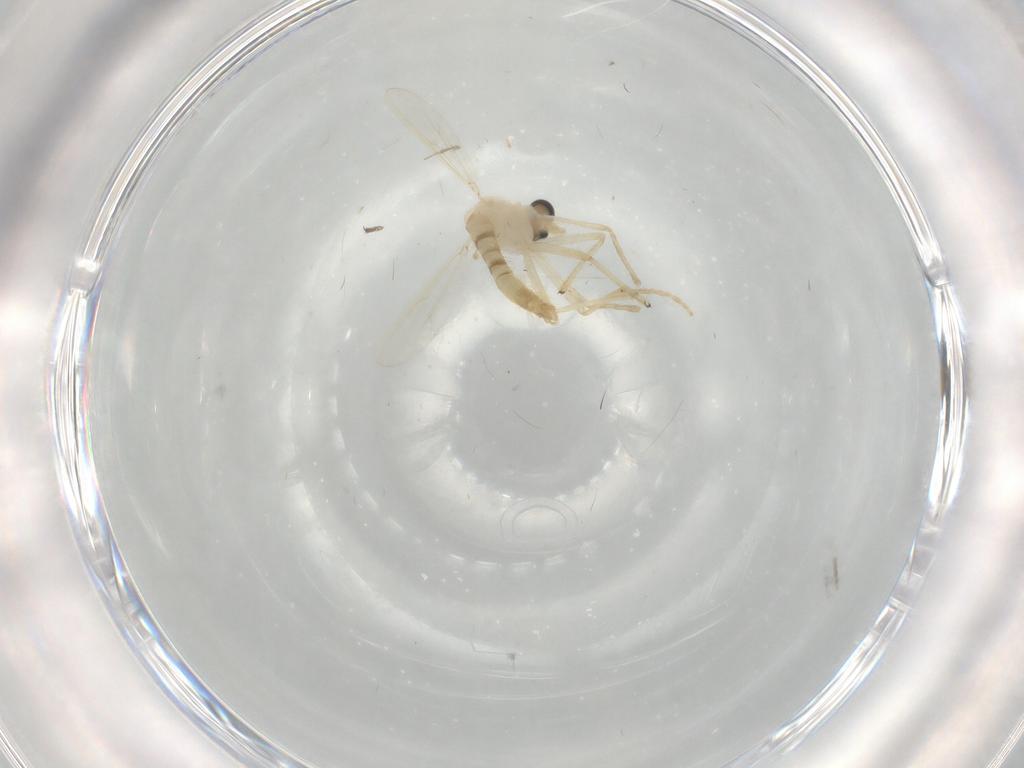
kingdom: Animalia
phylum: Arthropoda
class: Insecta
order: Diptera
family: Chironomidae
